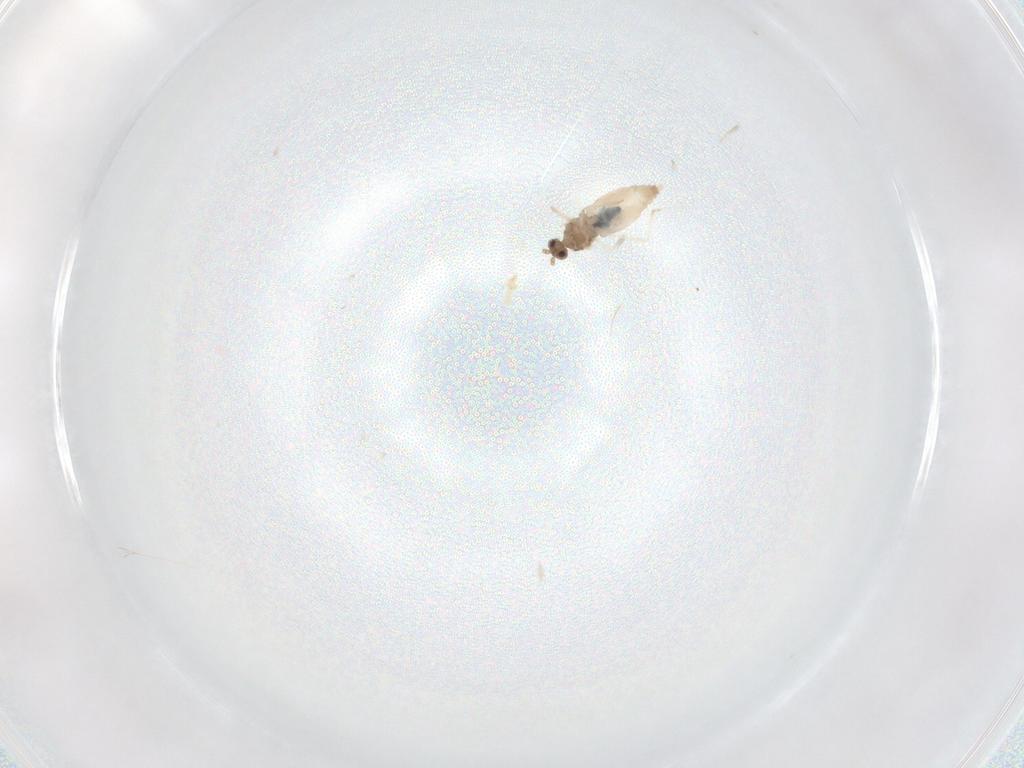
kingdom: Animalia
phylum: Arthropoda
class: Insecta
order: Diptera
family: Cecidomyiidae
